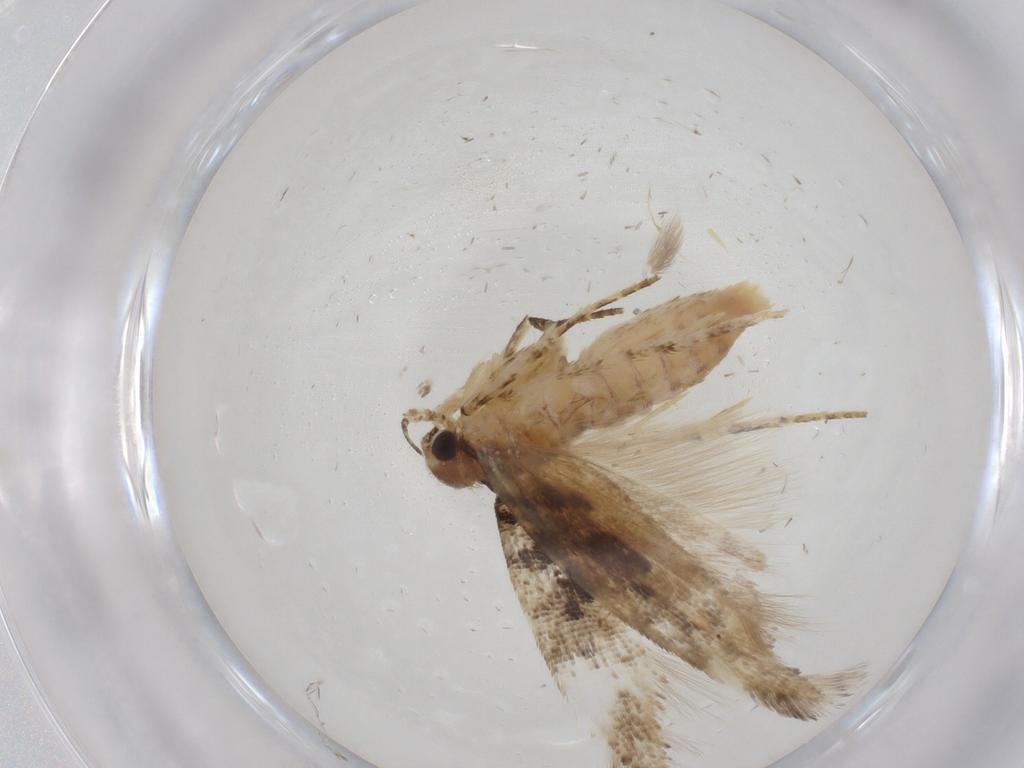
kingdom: Animalia
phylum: Arthropoda
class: Insecta
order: Lepidoptera
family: Gelechiidae
